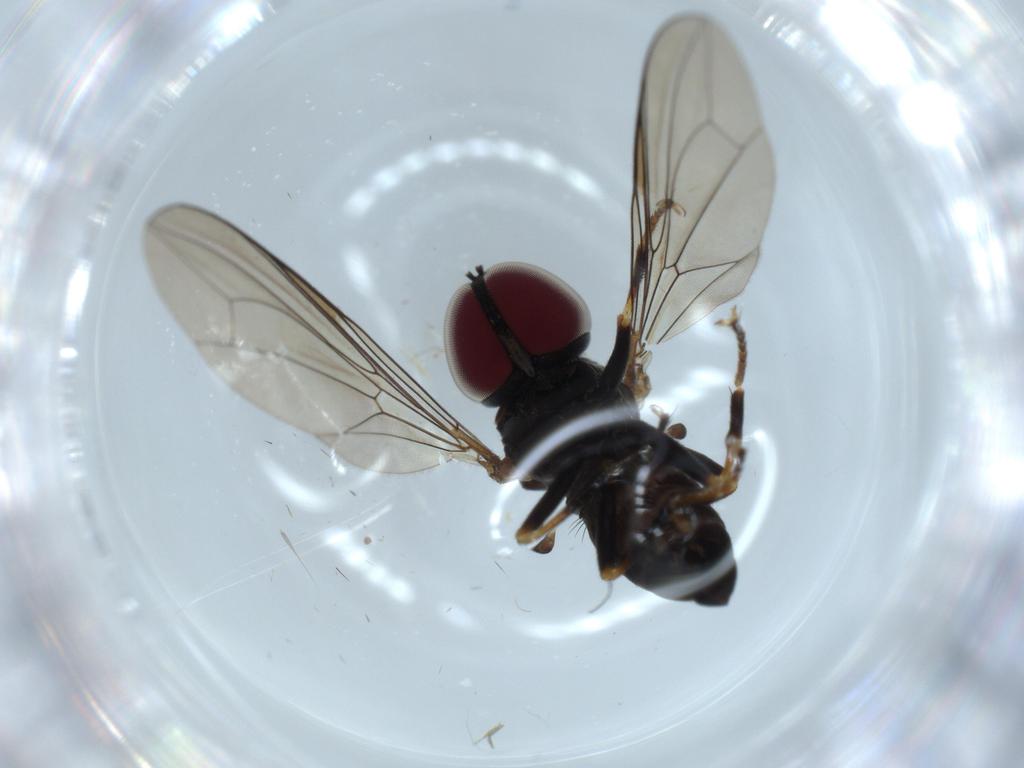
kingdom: Animalia
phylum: Arthropoda
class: Insecta
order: Diptera
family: Pipunculidae
